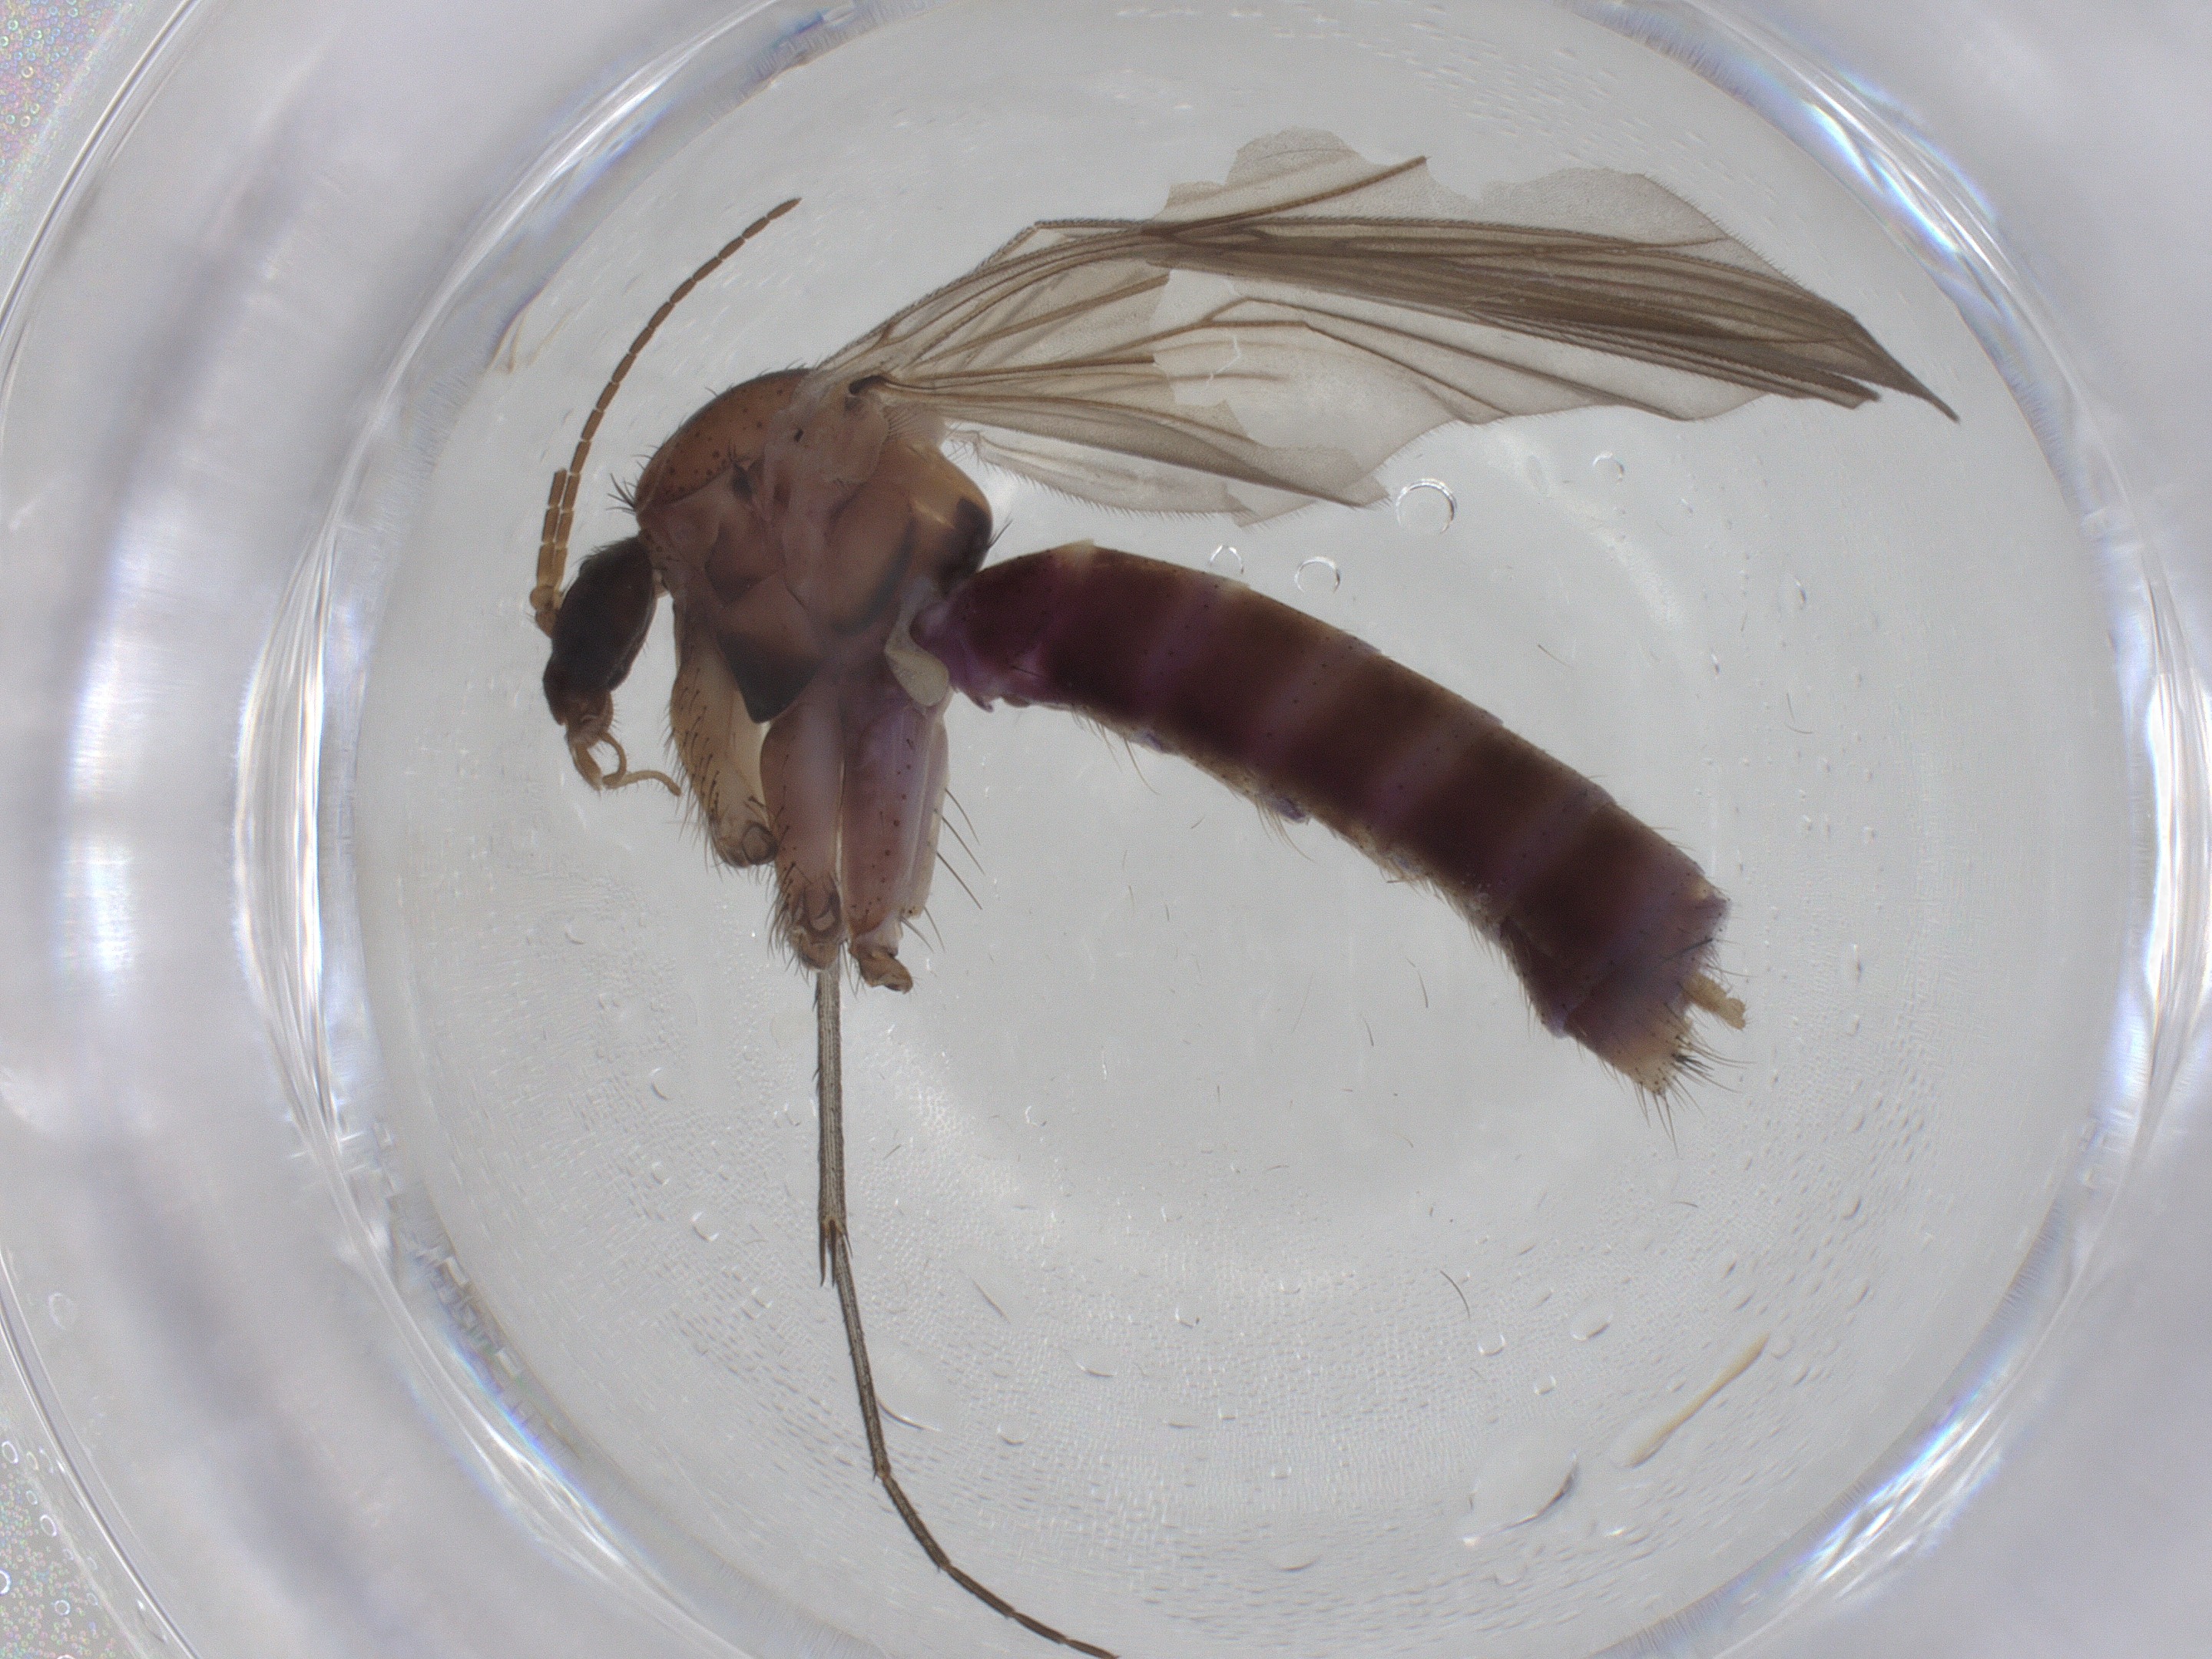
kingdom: Animalia
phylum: Arthropoda
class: Insecta
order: Diptera
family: Mycetophilidae
